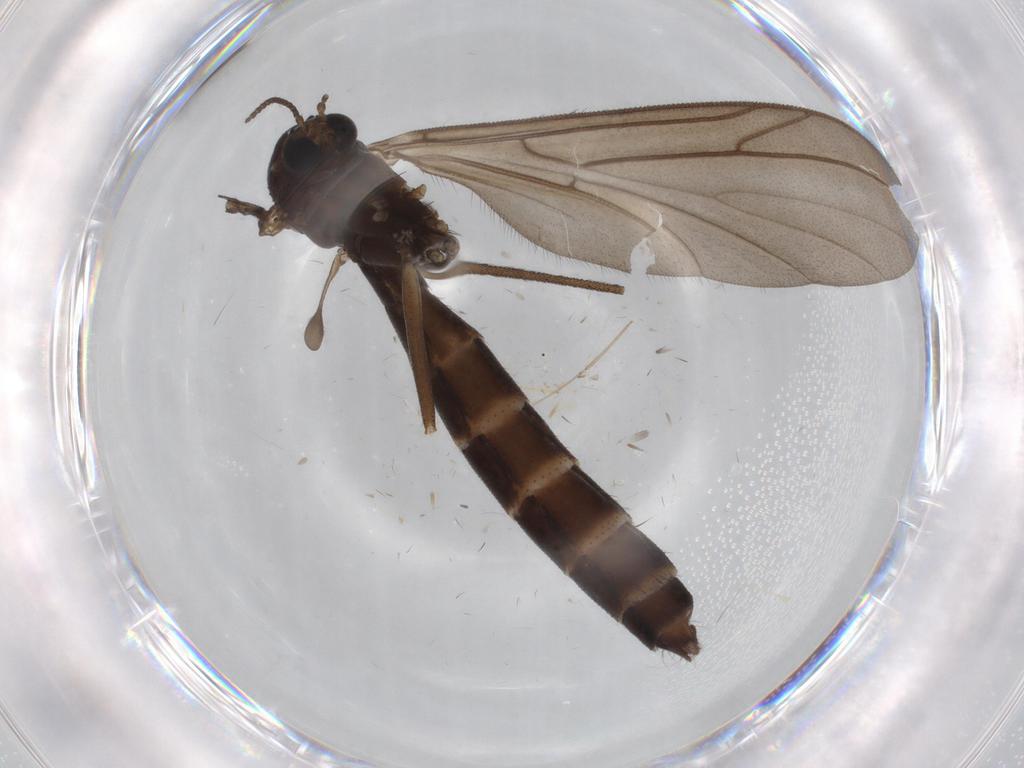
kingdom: Animalia
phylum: Arthropoda
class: Insecta
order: Diptera
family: Ditomyiidae
